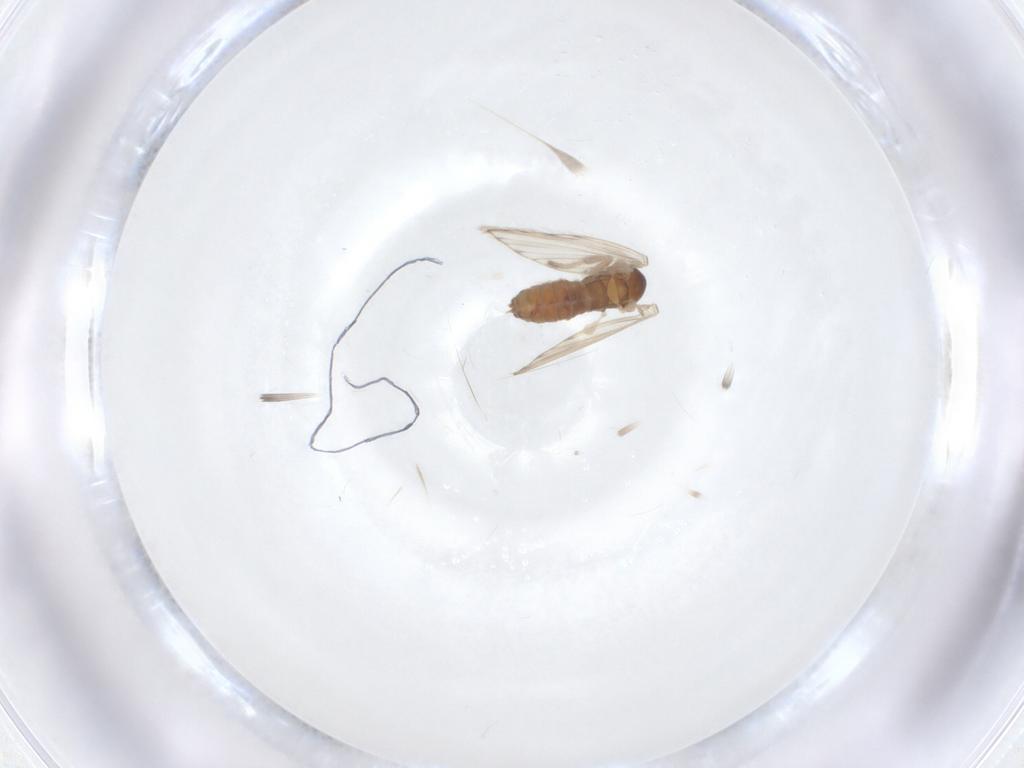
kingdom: Animalia
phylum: Arthropoda
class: Insecta
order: Diptera
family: Psychodidae
